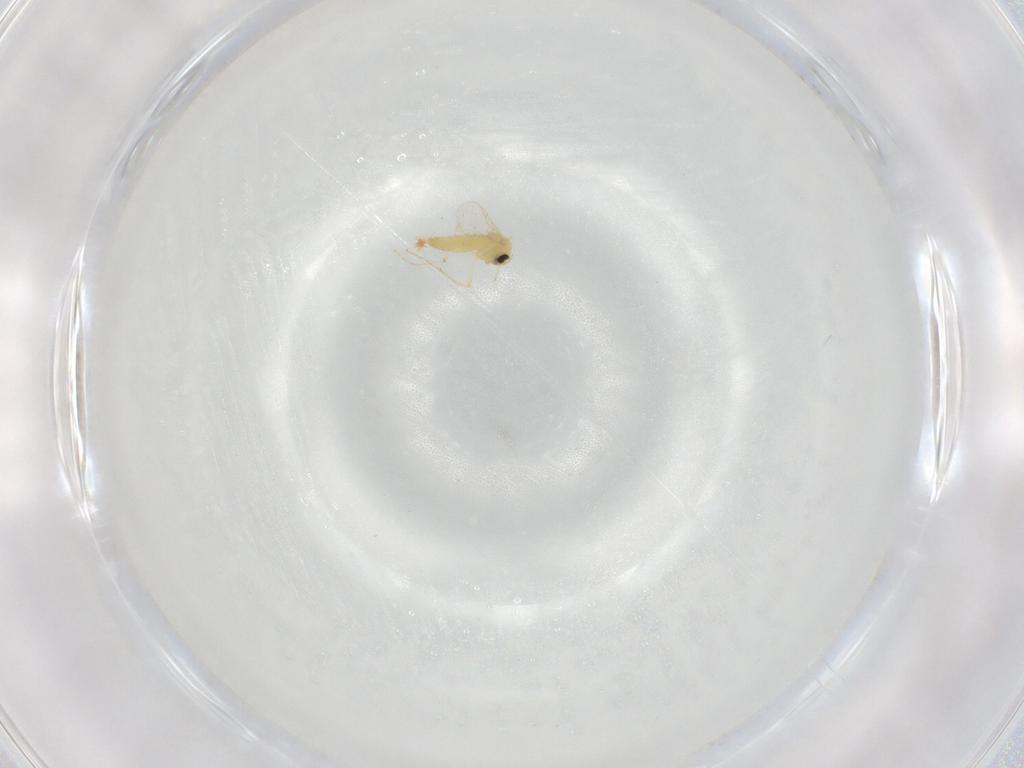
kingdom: Animalia
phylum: Arthropoda
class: Insecta
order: Diptera
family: Chironomidae
